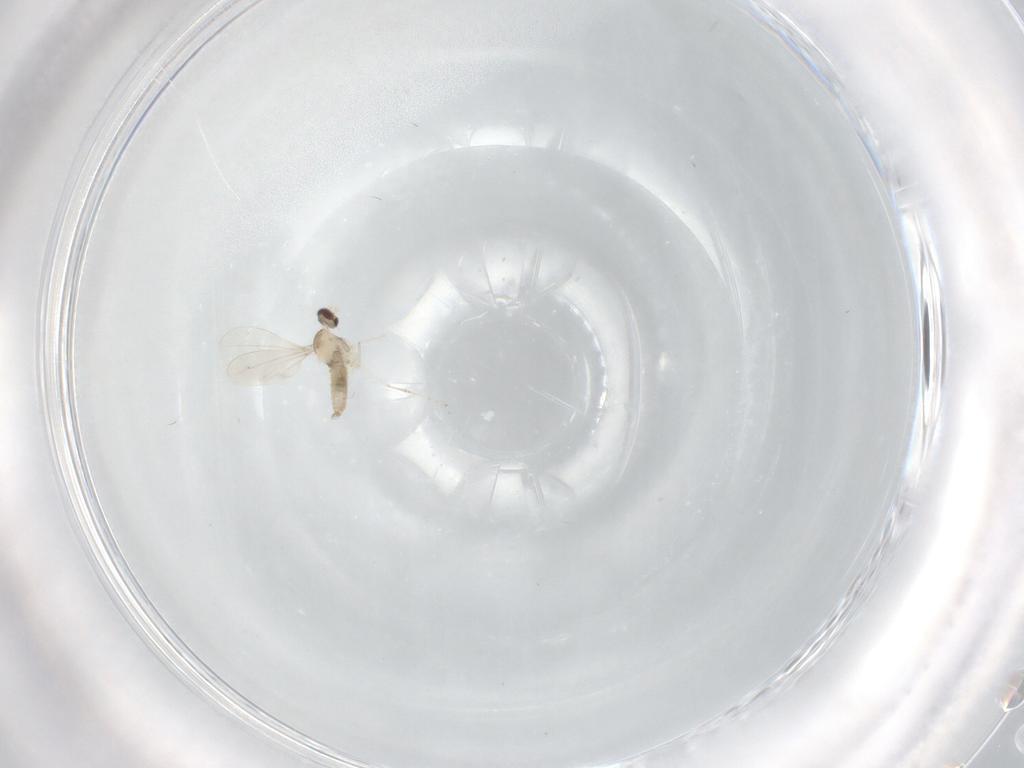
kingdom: Animalia
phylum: Arthropoda
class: Insecta
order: Diptera
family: Cecidomyiidae
